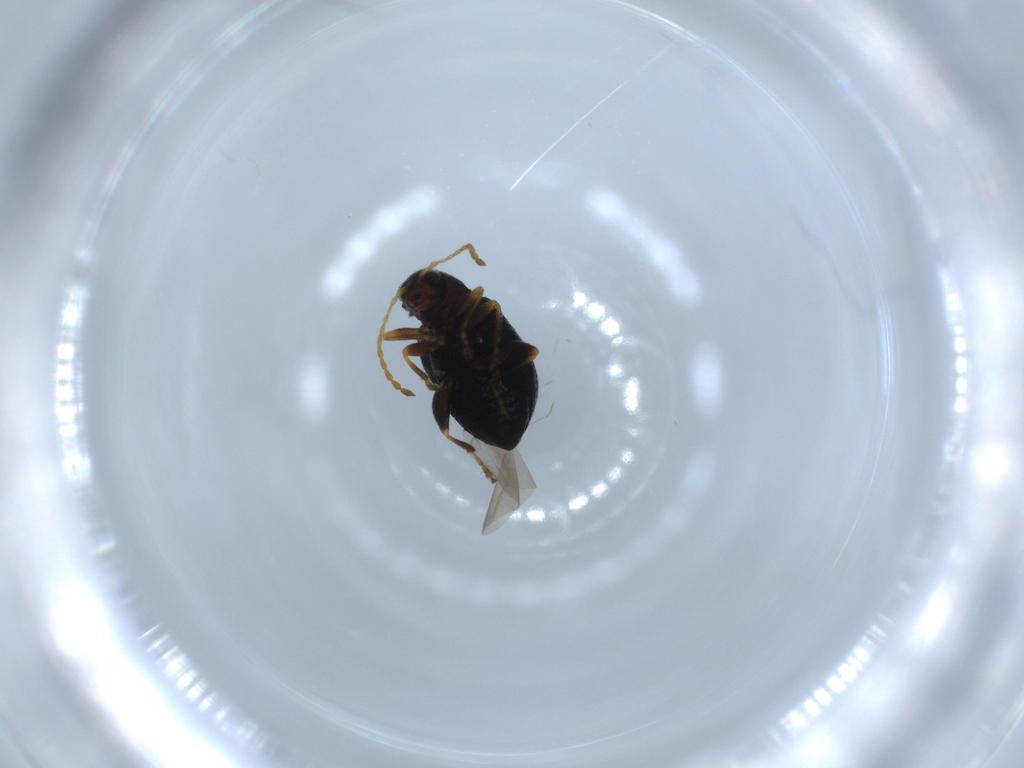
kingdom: Animalia
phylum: Arthropoda
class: Insecta
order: Coleoptera
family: Chrysomelidae
